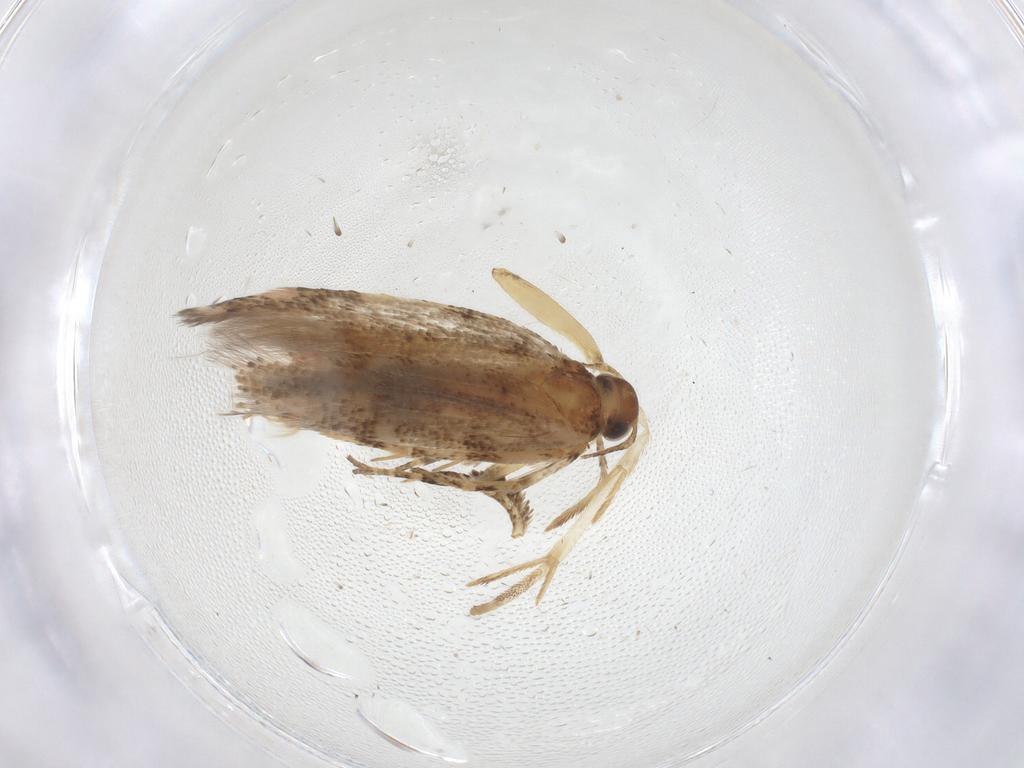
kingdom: Animalia
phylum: Arthropoda
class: Insecta
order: Lepidoptera
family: Gelechiidae
